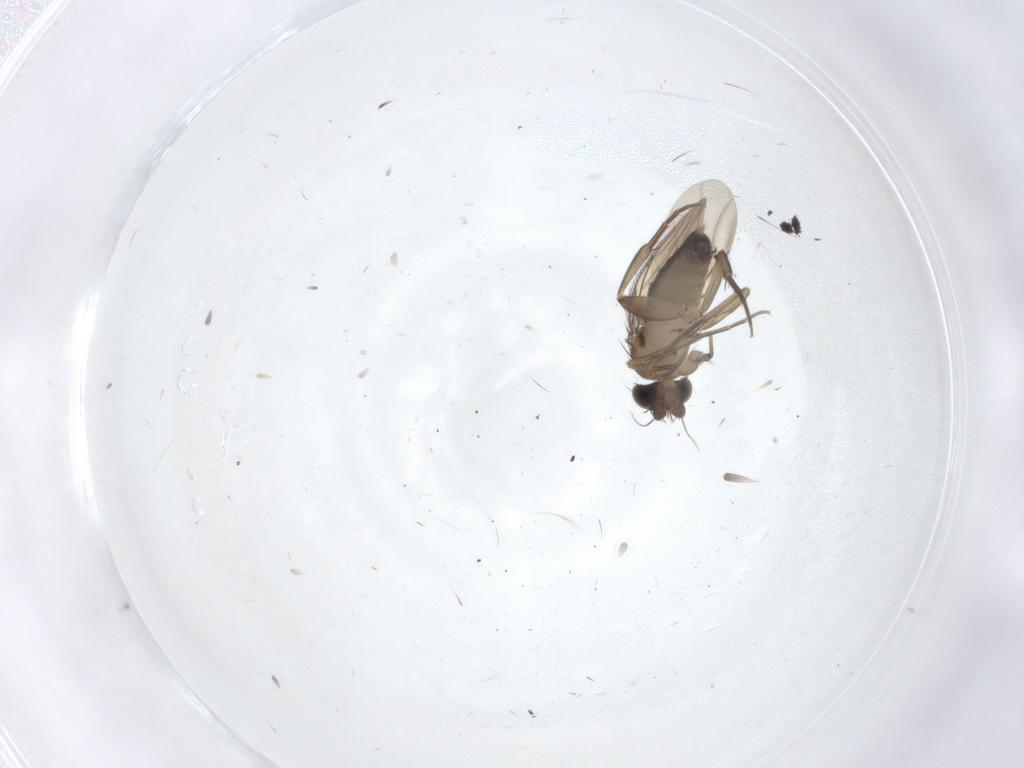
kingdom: Animalia
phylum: Arthropoda
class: Insecta
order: Diptera
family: Phoridae
